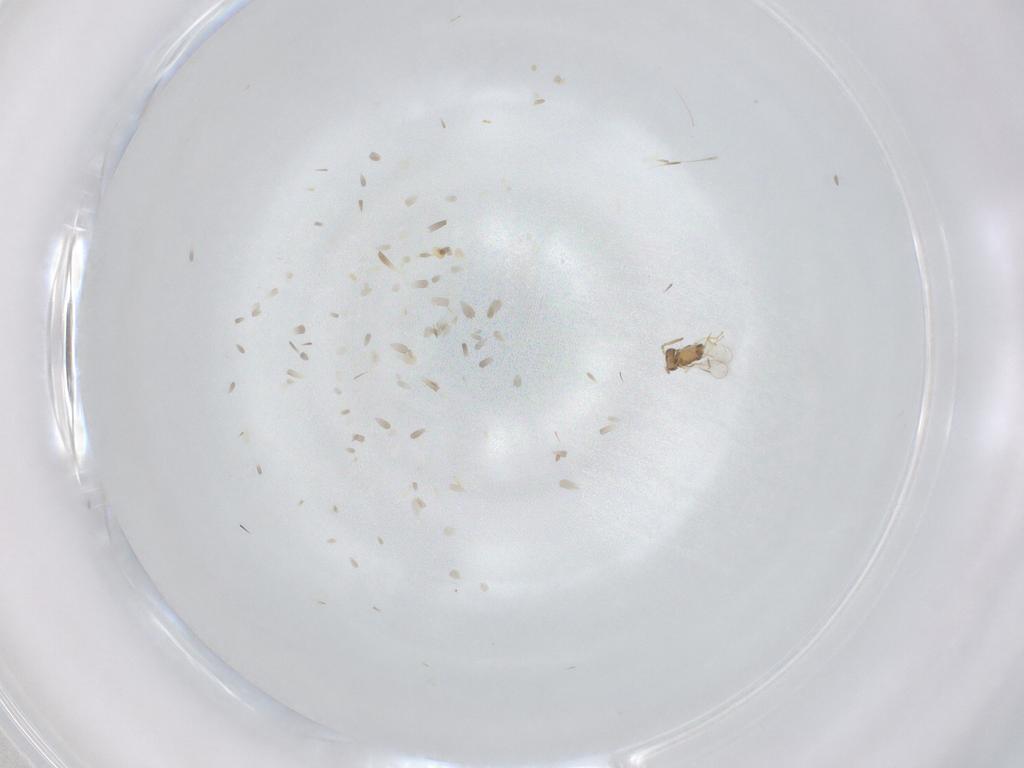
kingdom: Animalia
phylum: Arthropoda
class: Insecta
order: Hymenoptera
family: Aphelinidae
